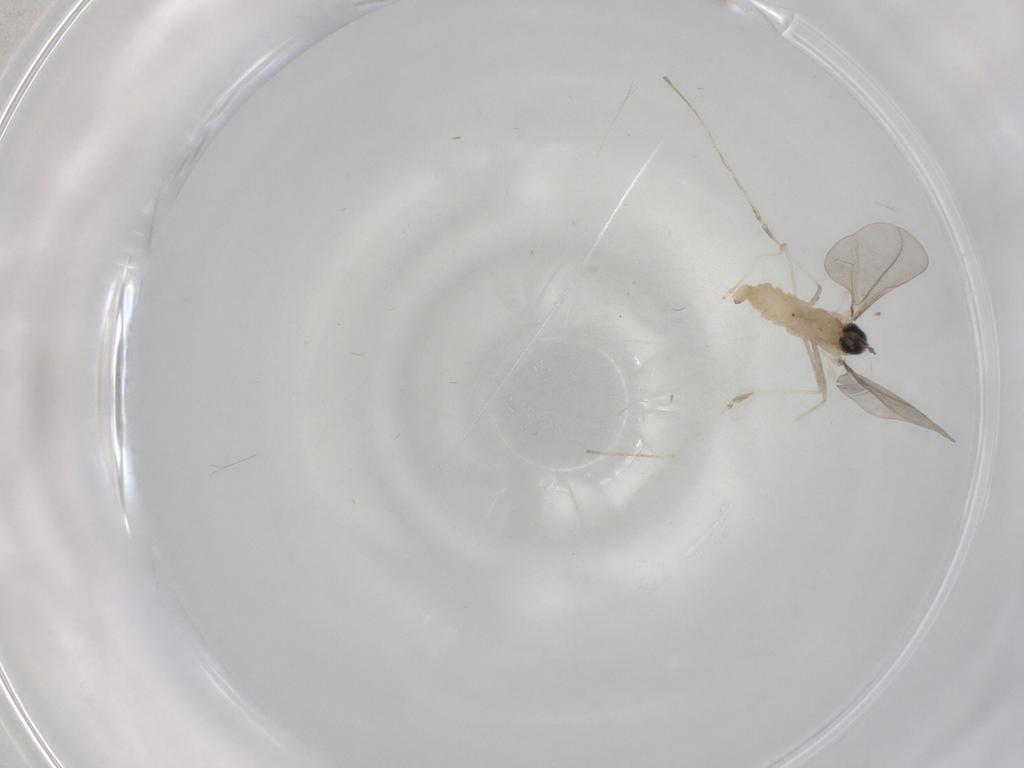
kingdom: Animalia
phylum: Arthropoda
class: Insecta
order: Diptera
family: Cecidomyiidae
